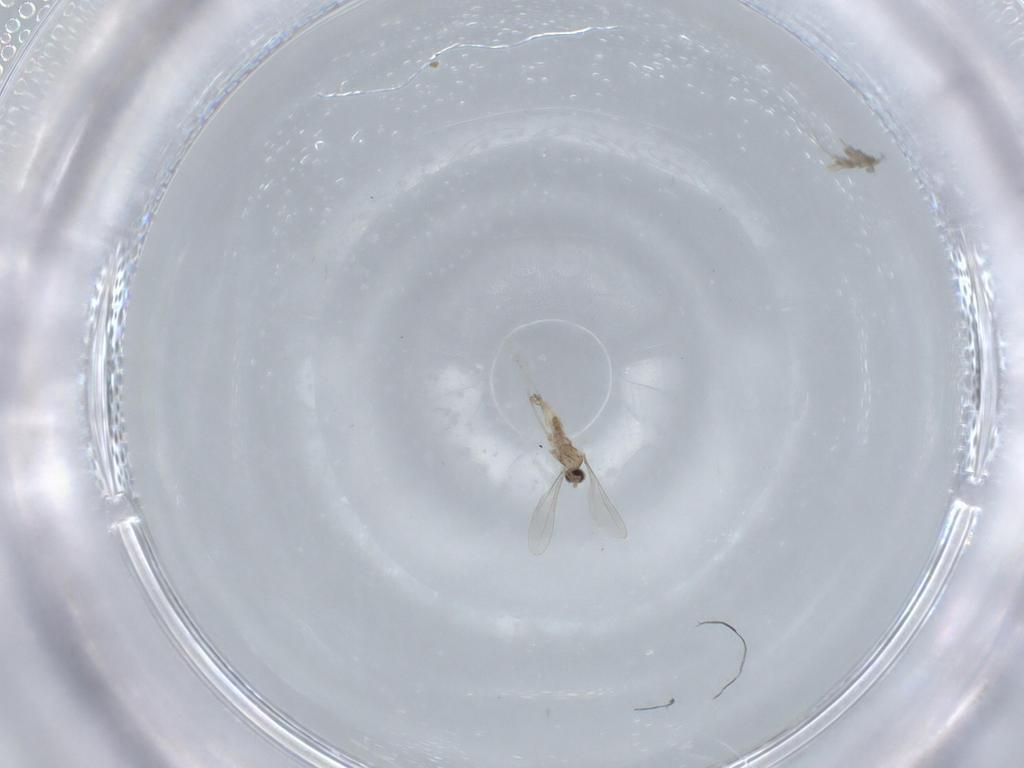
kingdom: Animalia
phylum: Arthropoda
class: Insecta
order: Diptera
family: Cecidomyiidae
